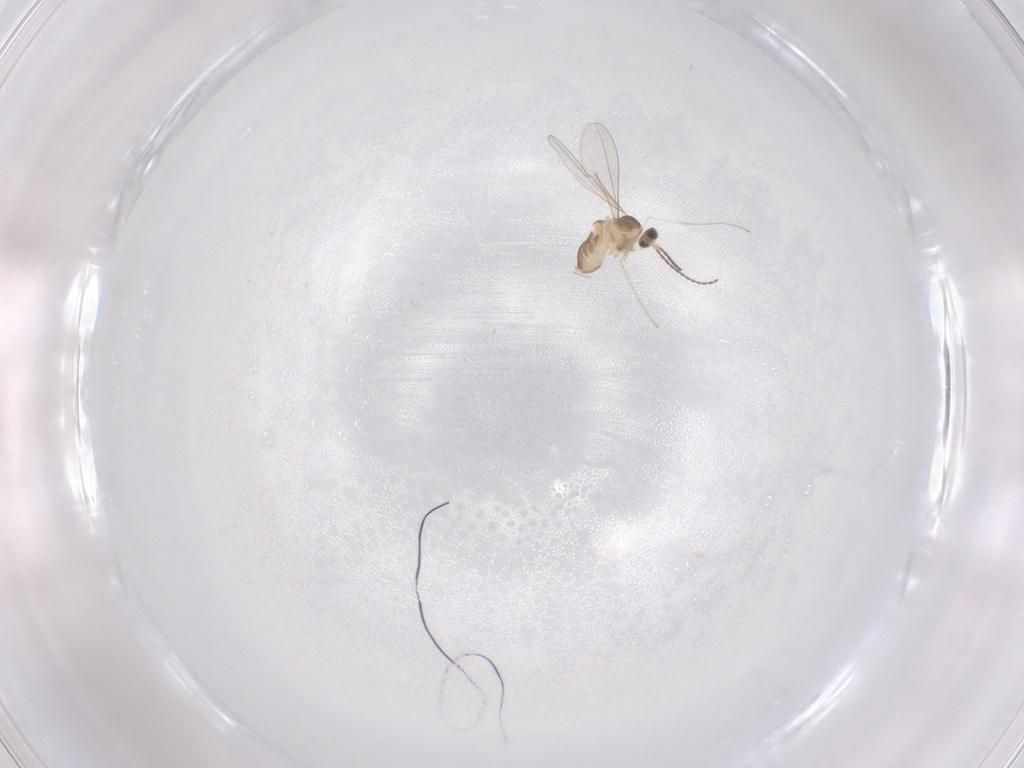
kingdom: Animalia
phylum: Arthropoda
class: Insecta
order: Diptera
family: Cecidomyiidae
